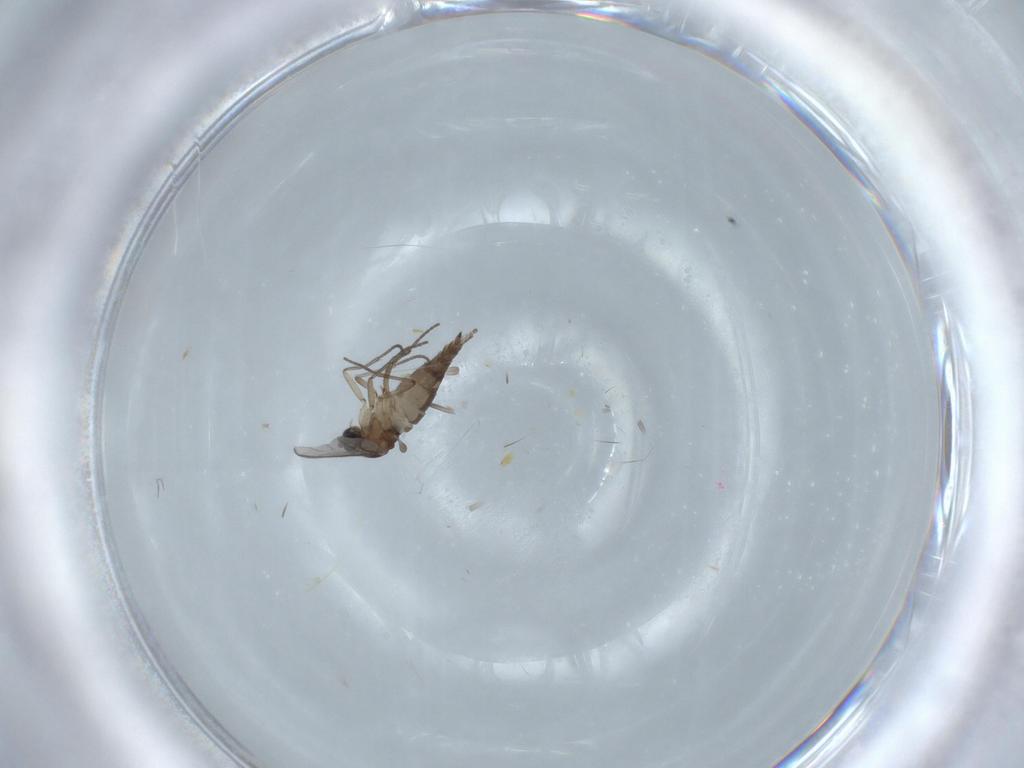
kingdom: Animalia
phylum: Arthropoda
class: Insecta
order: Diptera
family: Sciaridae
